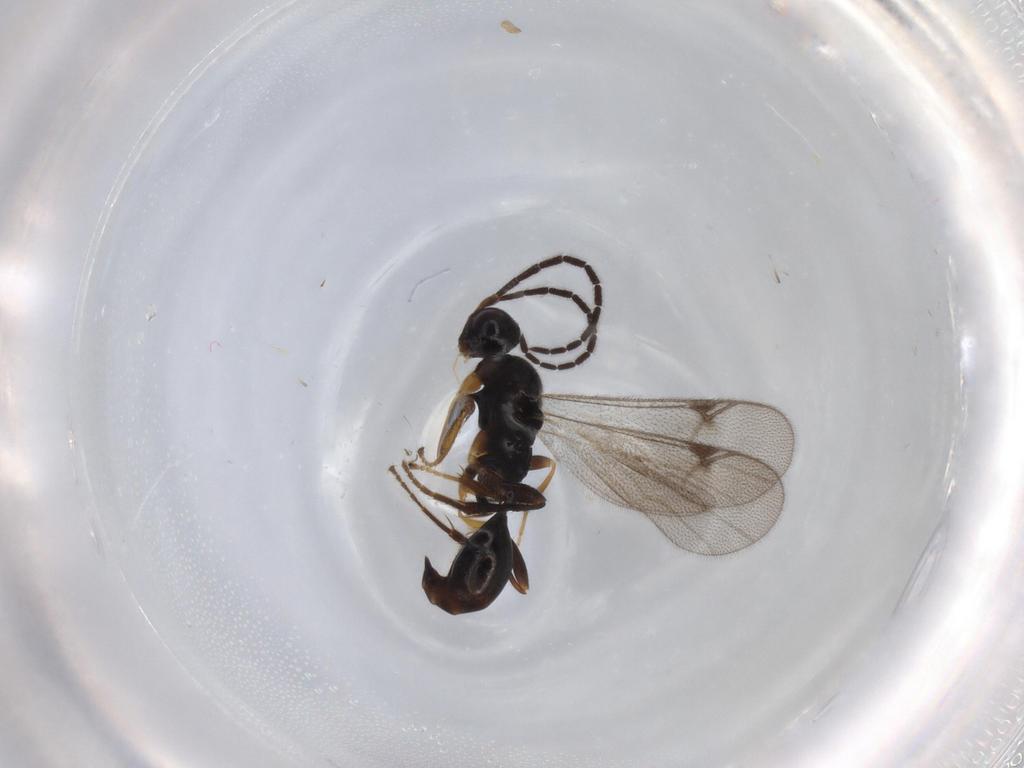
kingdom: Animalia
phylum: Arthropoda
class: Insecta
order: Hymenoptera
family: Proctotrupidae
